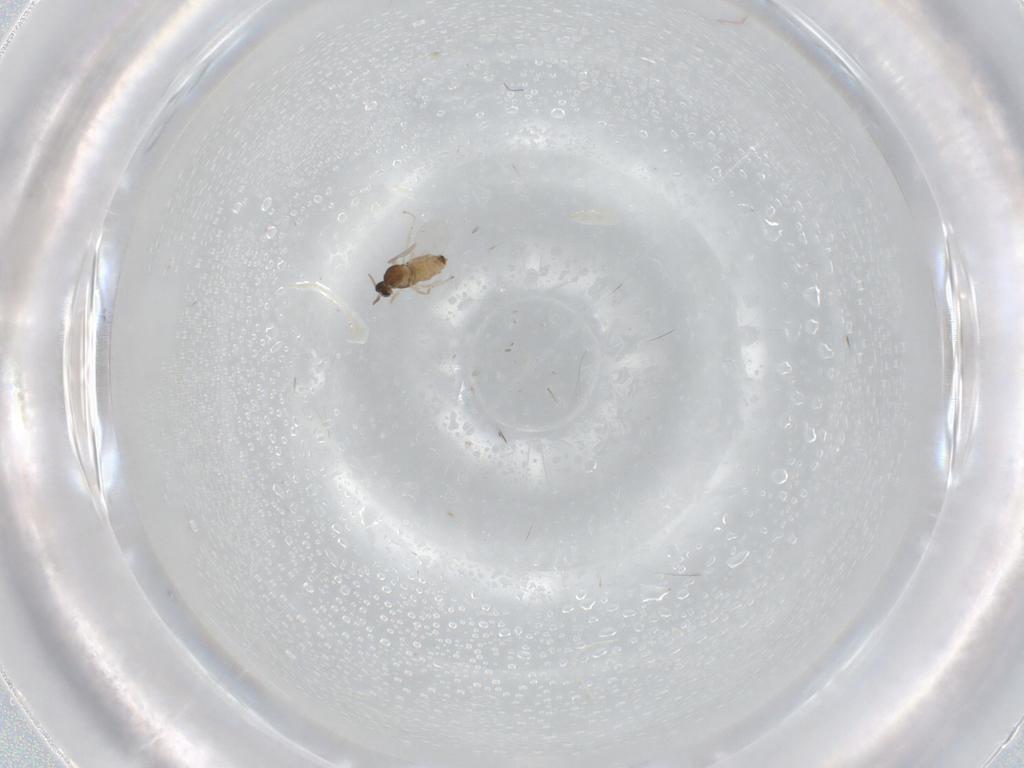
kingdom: Animalia
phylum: Arthropoda
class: Insecta
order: Diptera
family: Cecidomyiidae
